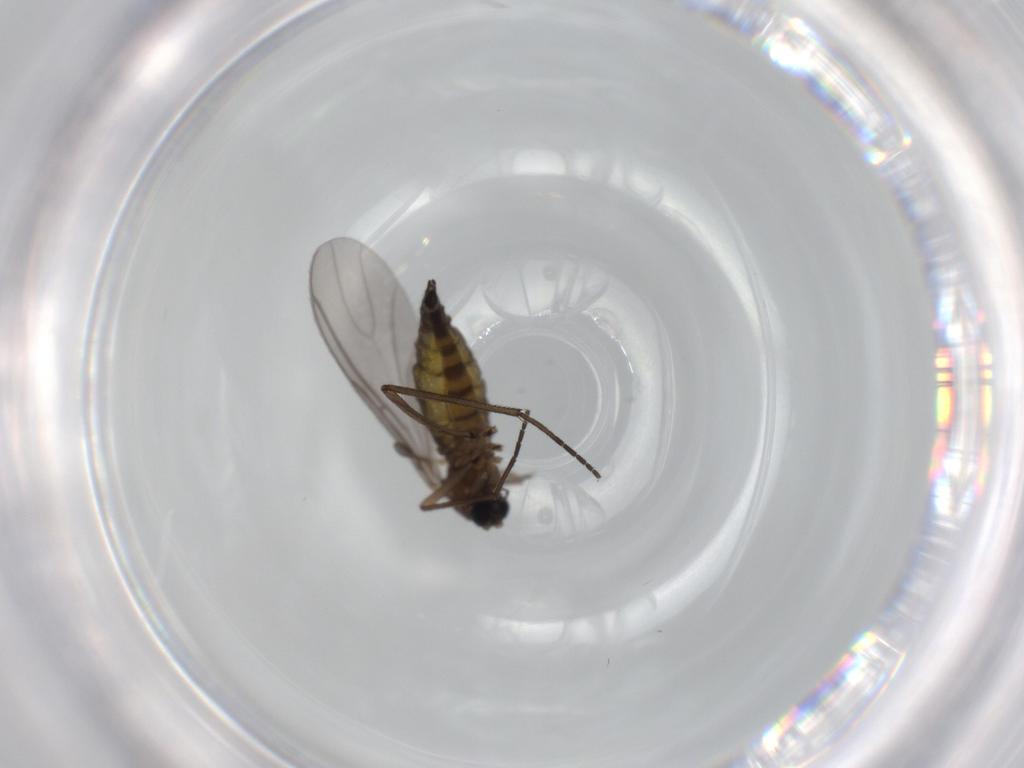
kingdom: Animalia
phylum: Arthropoda
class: Insecta
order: Diptera
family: Sciaridae
